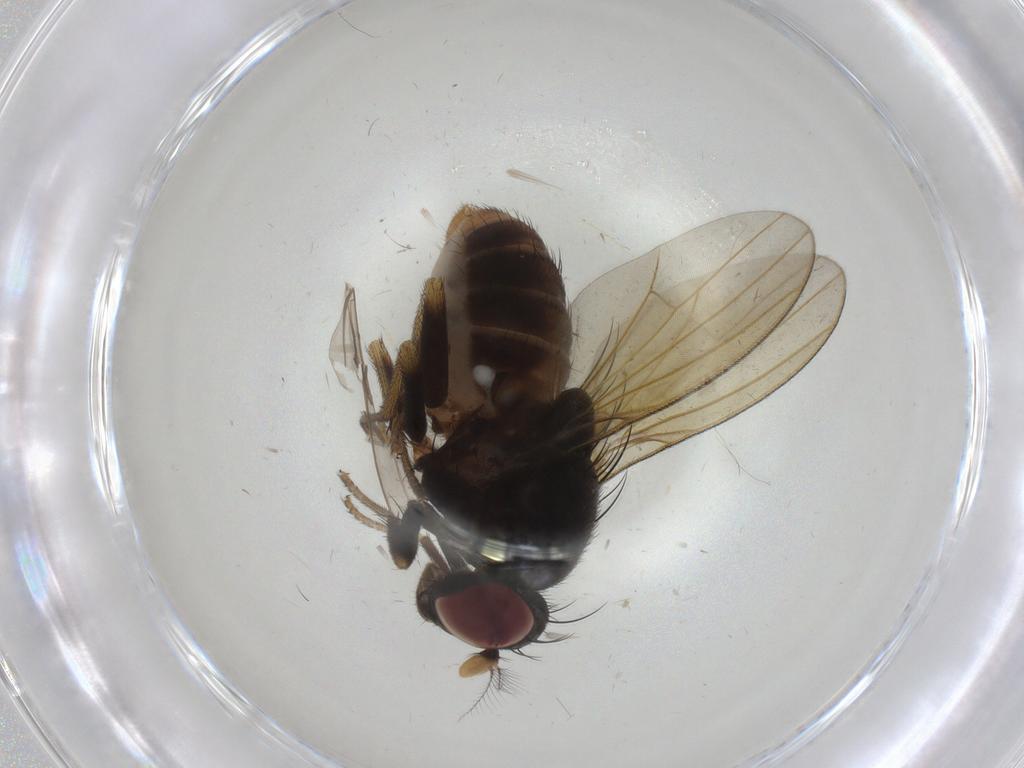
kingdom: Animalia
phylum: Arthropoda
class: Insecta
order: Diptera
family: Lauxaniidae
